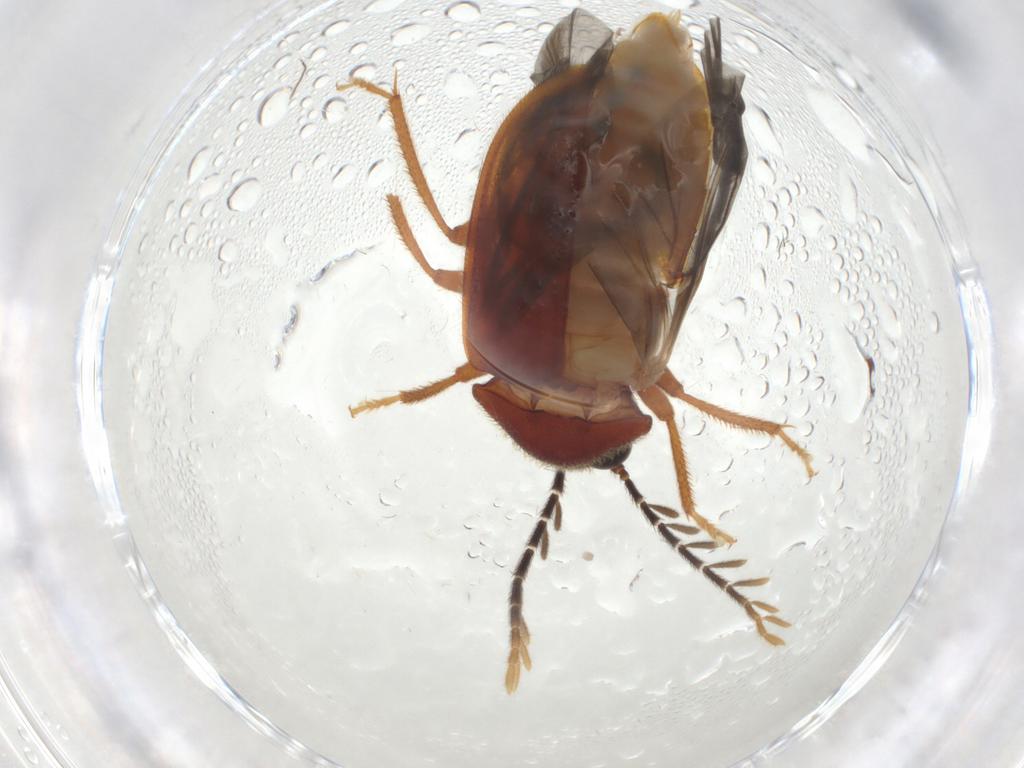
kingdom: Animalia
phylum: Arthropoda
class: Insecta
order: Coleoptera
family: Ptilodactylidae
